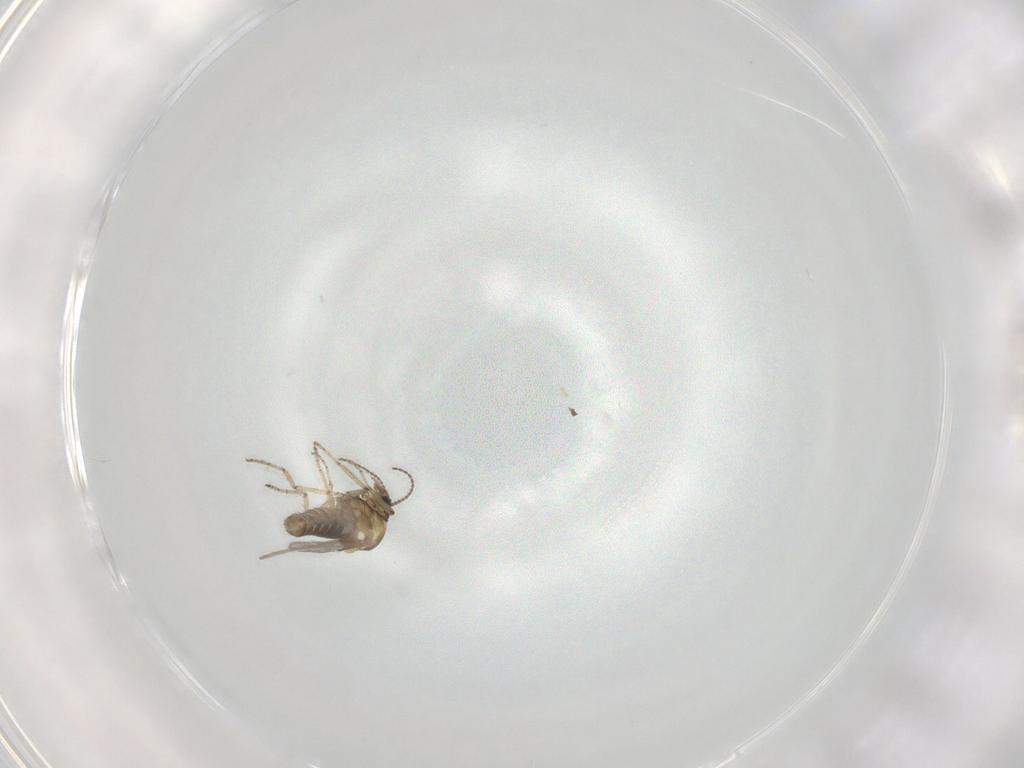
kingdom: Animalia
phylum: Arthropoda
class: Insecta
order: Diptera
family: Ceratopogonidae
